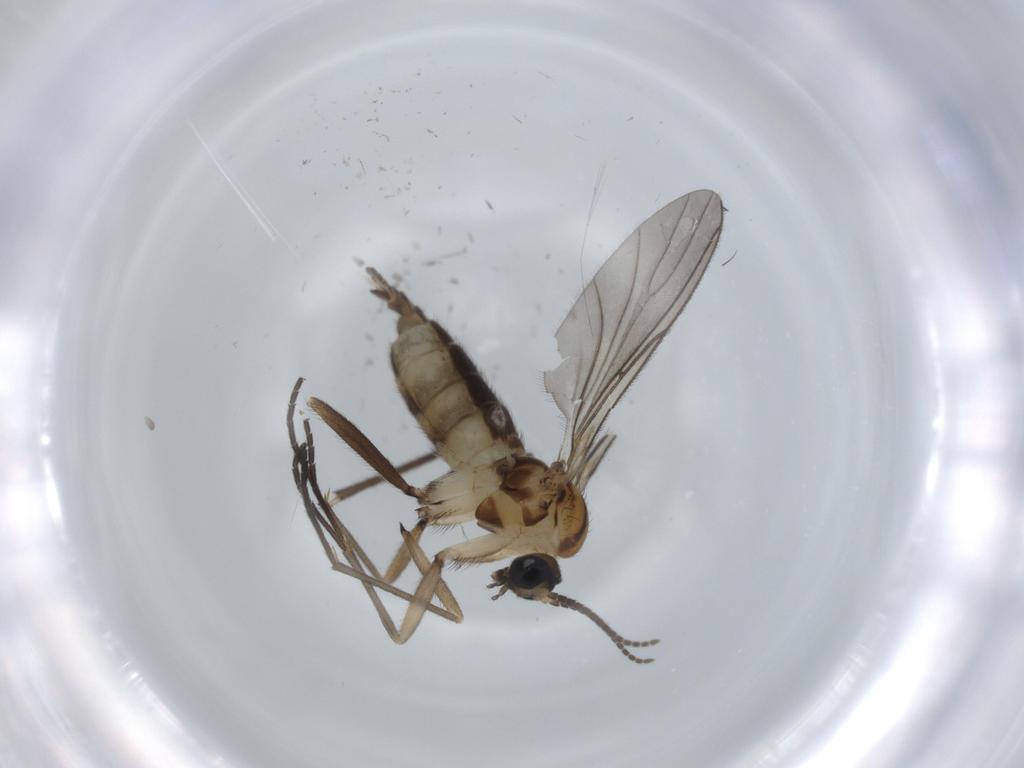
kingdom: Animalia
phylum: Arthropoda
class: Insecta
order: Diptera
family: Sciaridae
